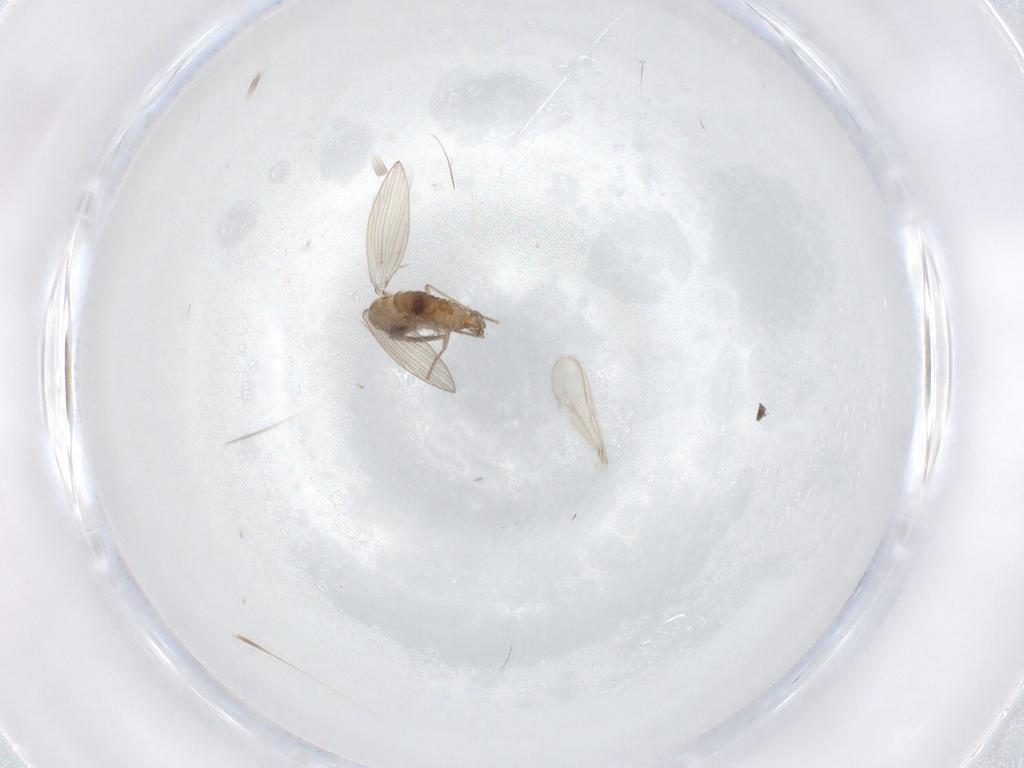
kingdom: Animalia
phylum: Arthropoda
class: Insecta
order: Diptera
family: Psychodidae
